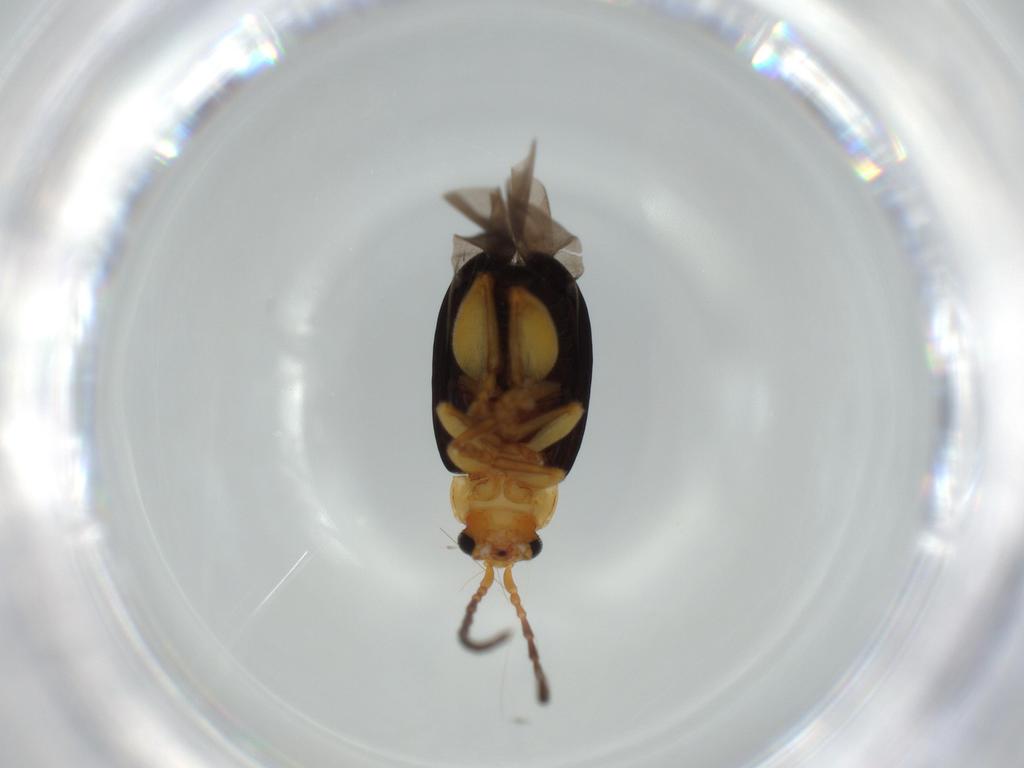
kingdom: Animalia
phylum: Arthropoda
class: Insecta
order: Coleoptera
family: Chrysomelidae
